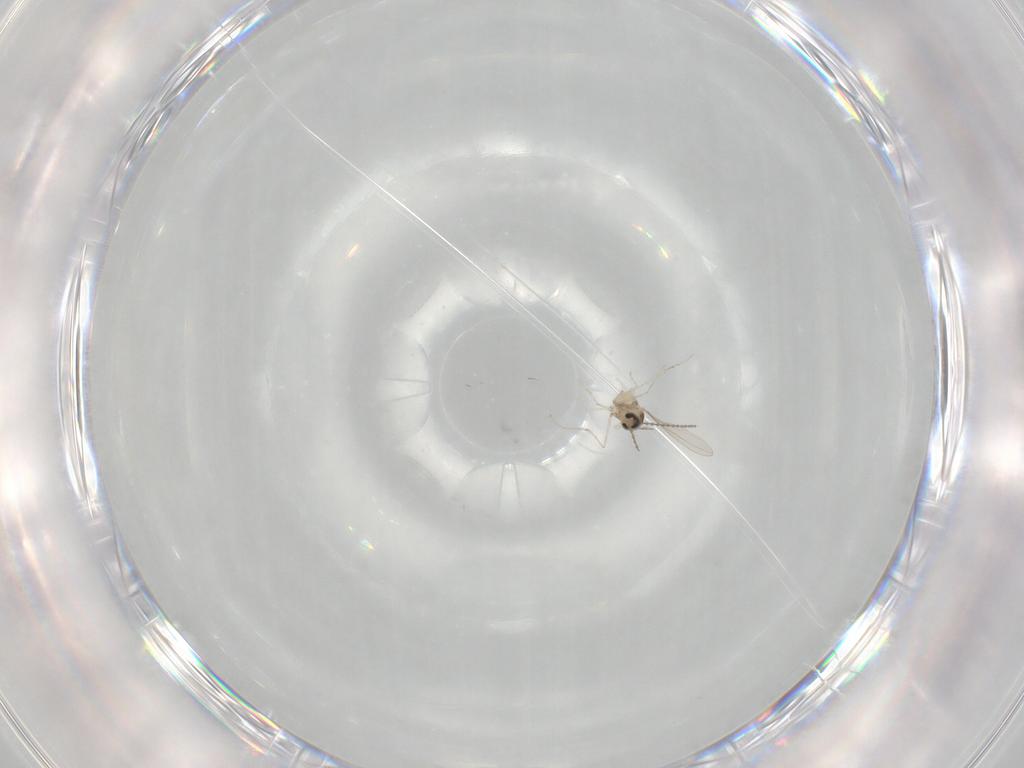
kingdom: Animalia
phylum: Arthropoda
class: Insecta
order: Diptera
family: Cecidomyiidae
